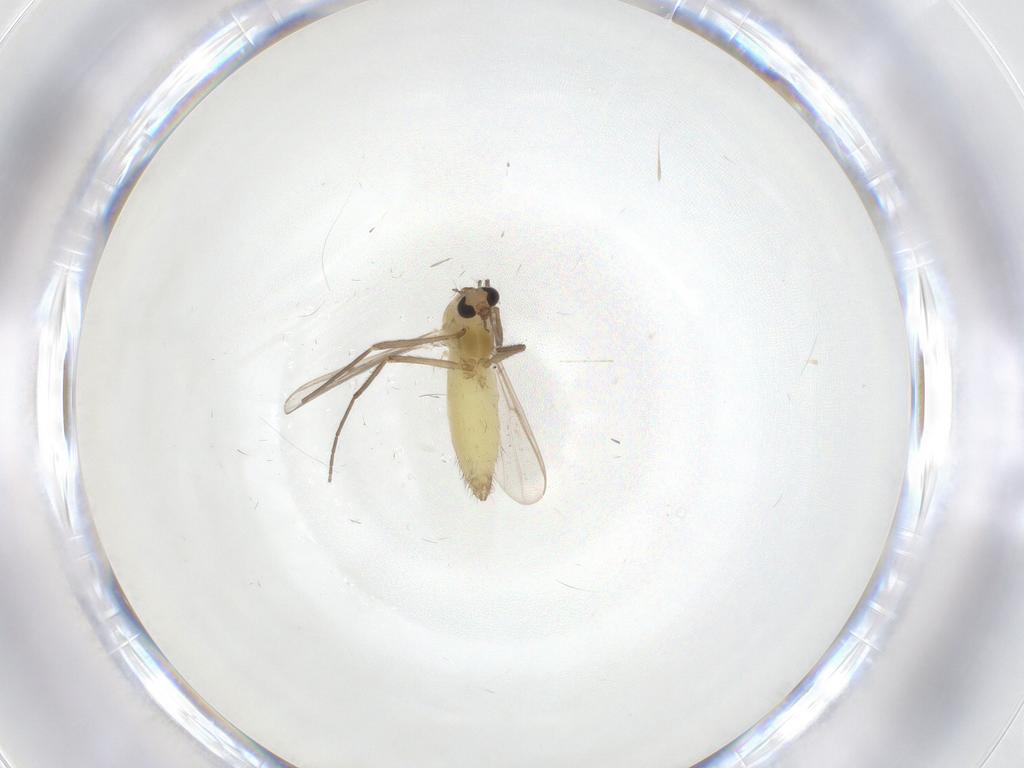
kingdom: Animalia
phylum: Arthropoda
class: Insecta
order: Diptera
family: Chironomidae
